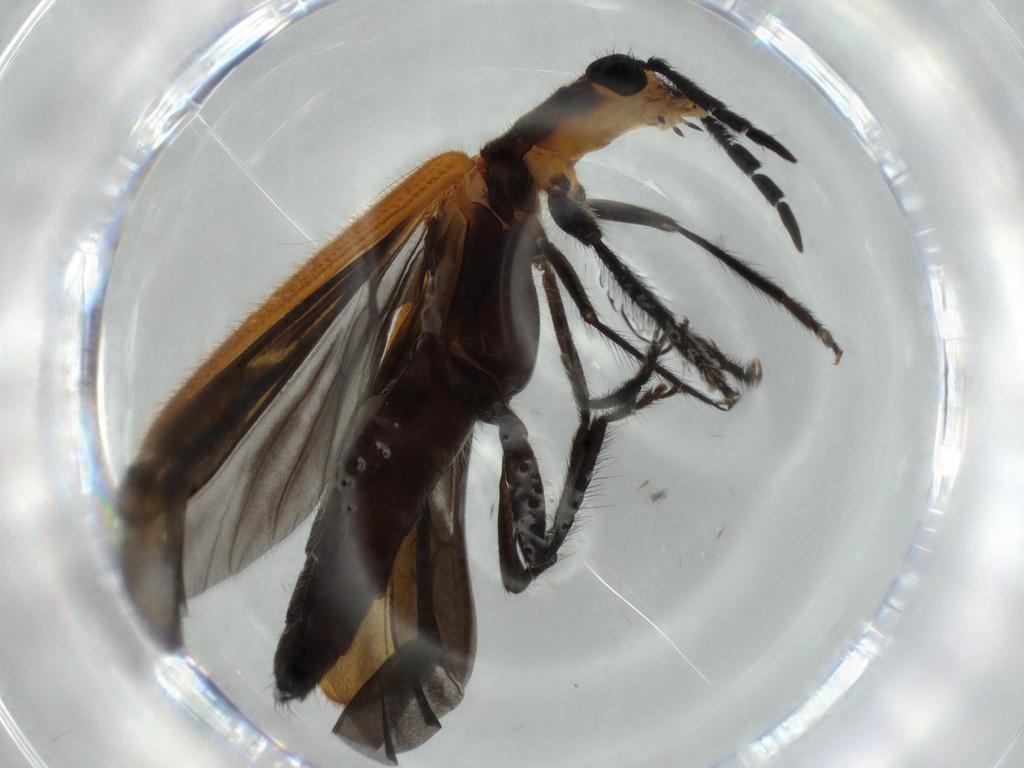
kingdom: Animalia
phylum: Arthropoda
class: Insecta
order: Coleoptera
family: Cleridae
